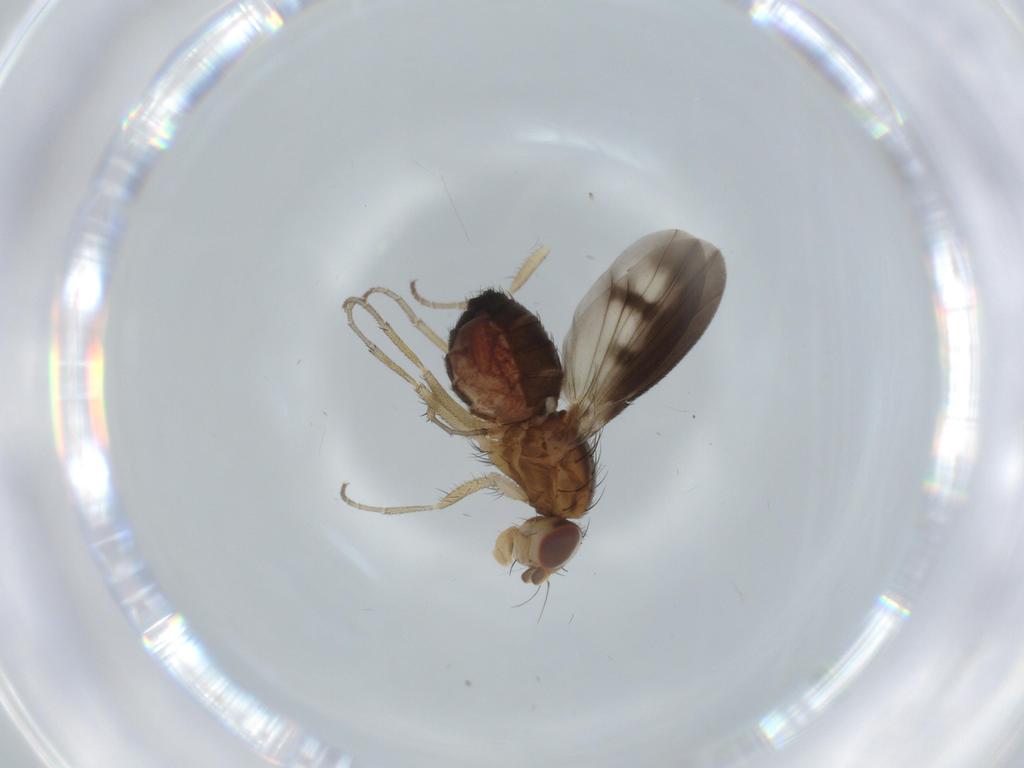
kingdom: Animalia
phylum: Arthropoda
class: Insecta
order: Diptera
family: Heleomyzidae
